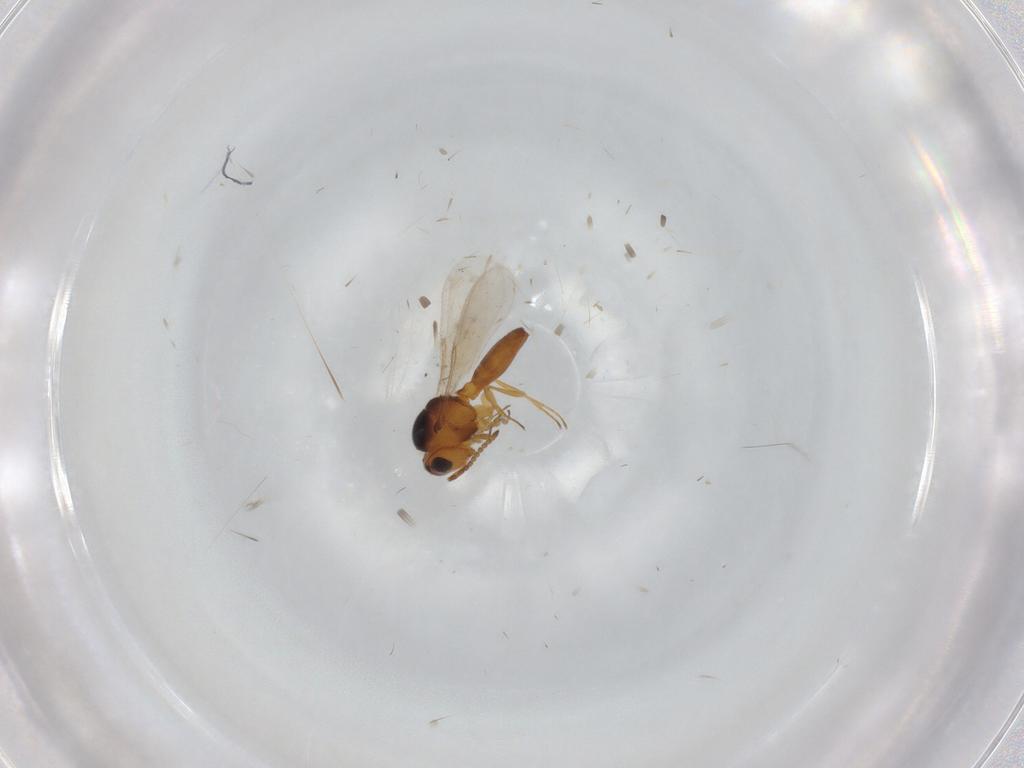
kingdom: Animalia
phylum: Arthropoda
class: Insecta
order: Hymenoptera
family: Scelionidae
